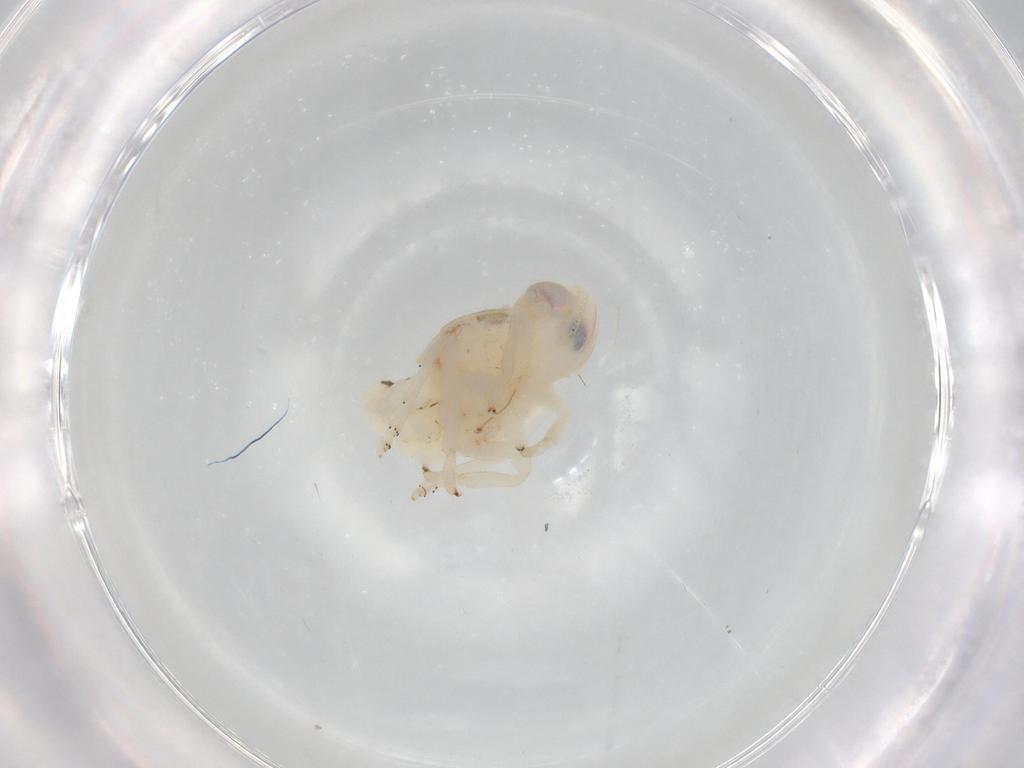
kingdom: Animalia
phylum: Arthropoda
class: Insecta
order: Hemiptera
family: Nogodinidae
